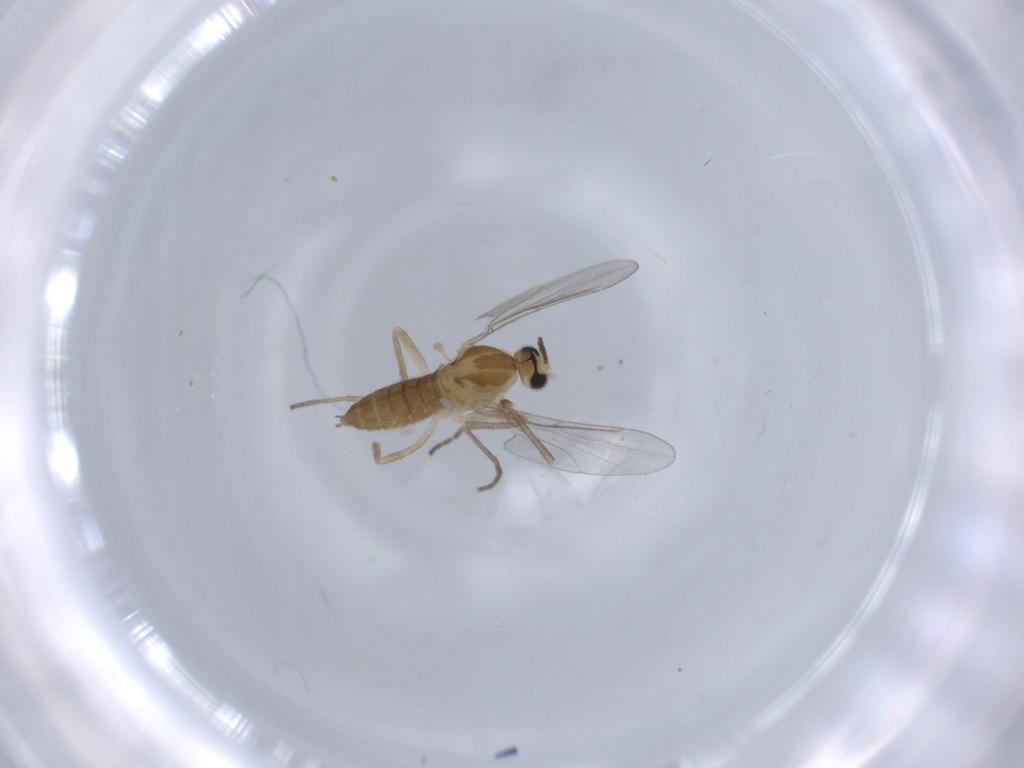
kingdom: Animalia
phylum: Arthropoda
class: Insecta
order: Diptera
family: Cecidomyiidae
